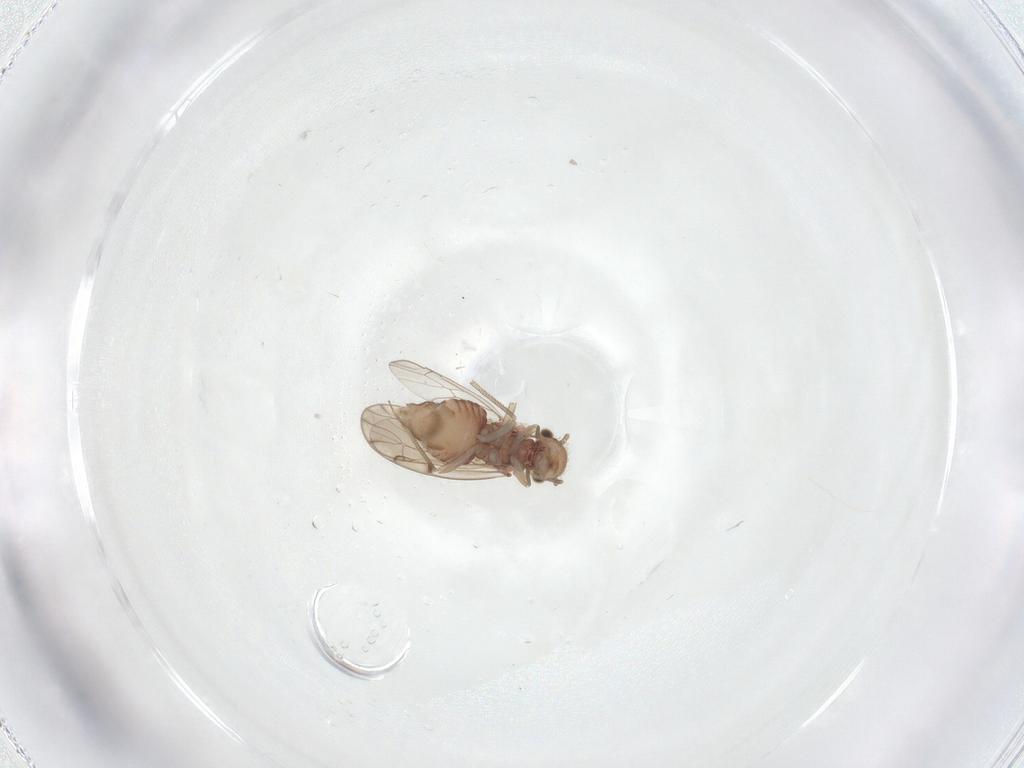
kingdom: Animalia
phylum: Arthropoda
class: Insecta
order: Psocodea
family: Ectopsocidae
